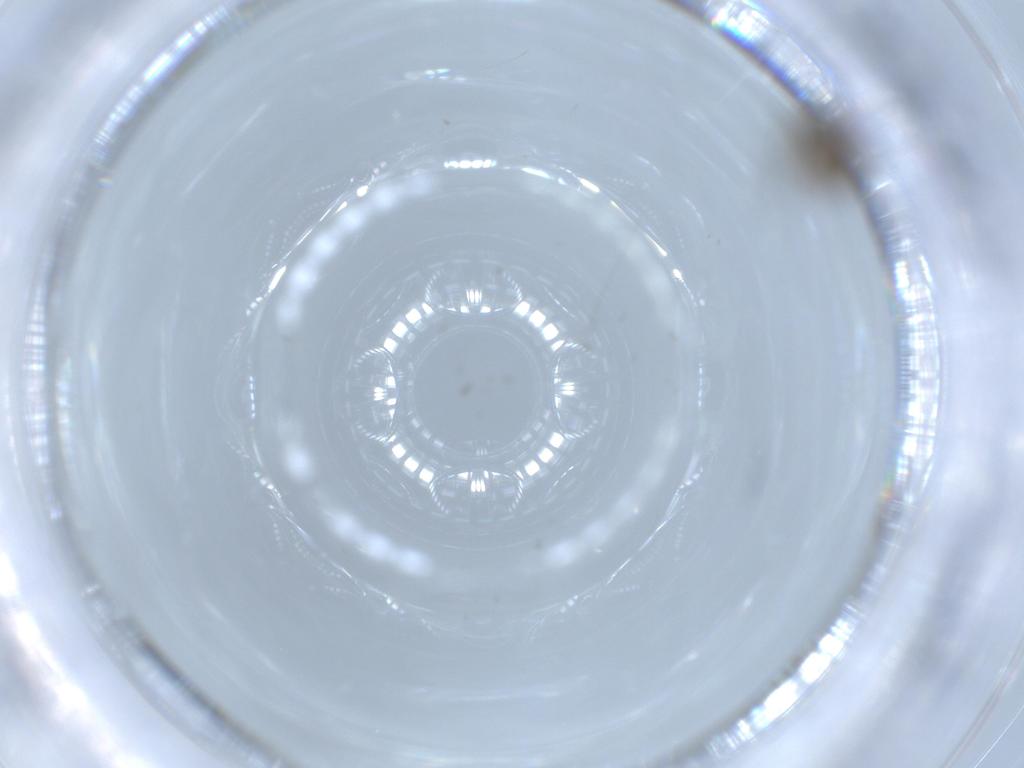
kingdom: Animalia
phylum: Arthropoda
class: Insecta
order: Diptera
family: Phoridae
